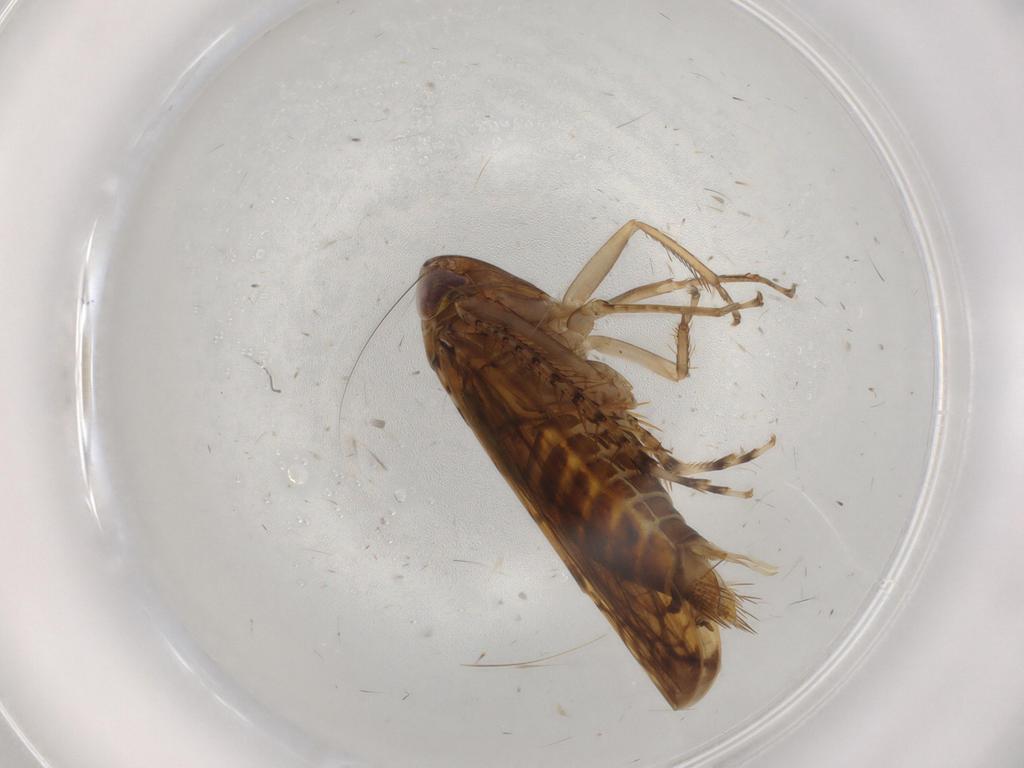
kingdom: Animalia
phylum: Arthropoda
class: Insecta
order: Hemiptera
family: Cicadellidae
